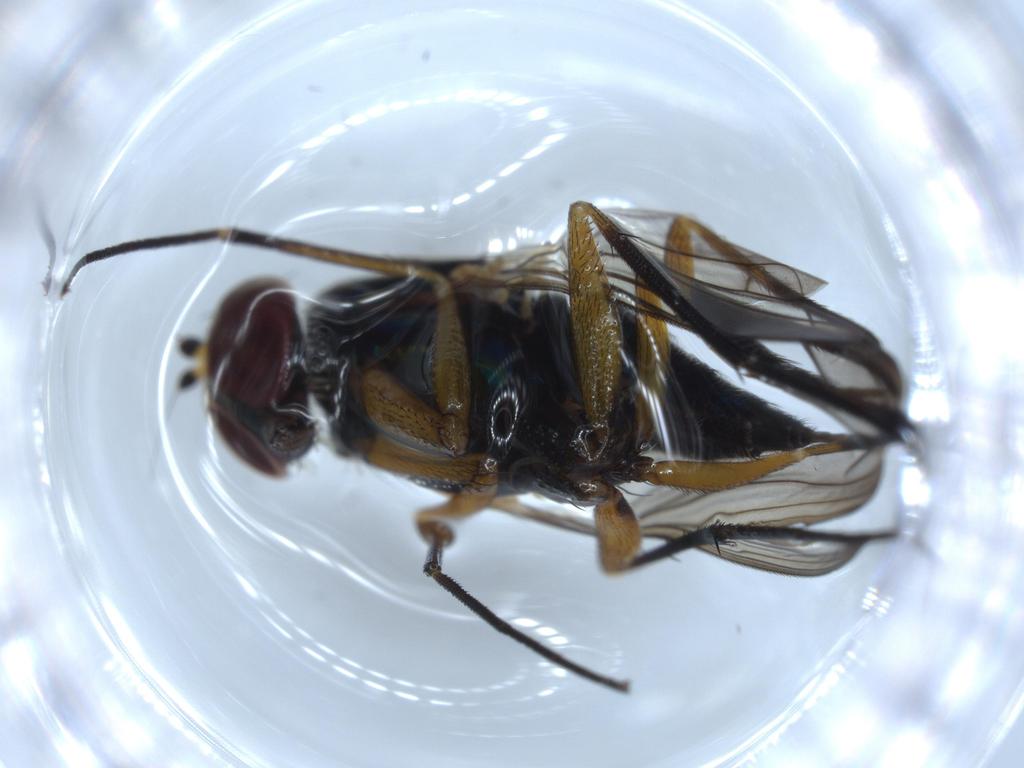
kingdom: Animalia
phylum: Arthropoda
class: Insecta
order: Diptera
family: Dolichopodidae
